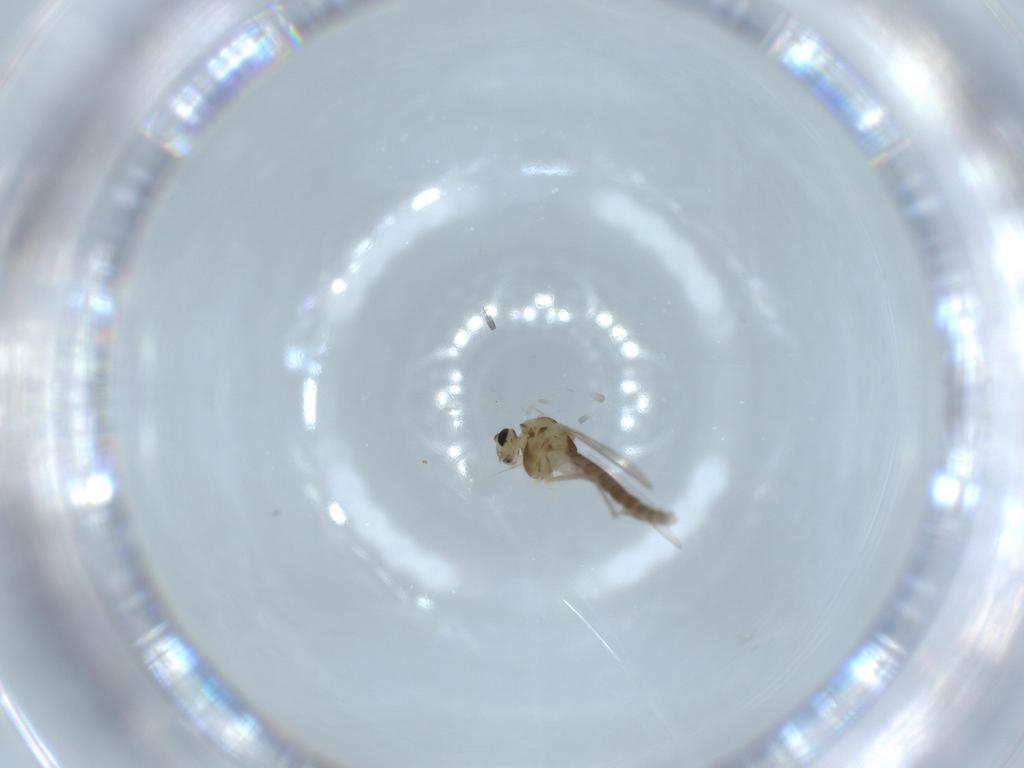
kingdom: Animalia
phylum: Arthropoda
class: Insecta
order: Diptera
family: Chironomidae
